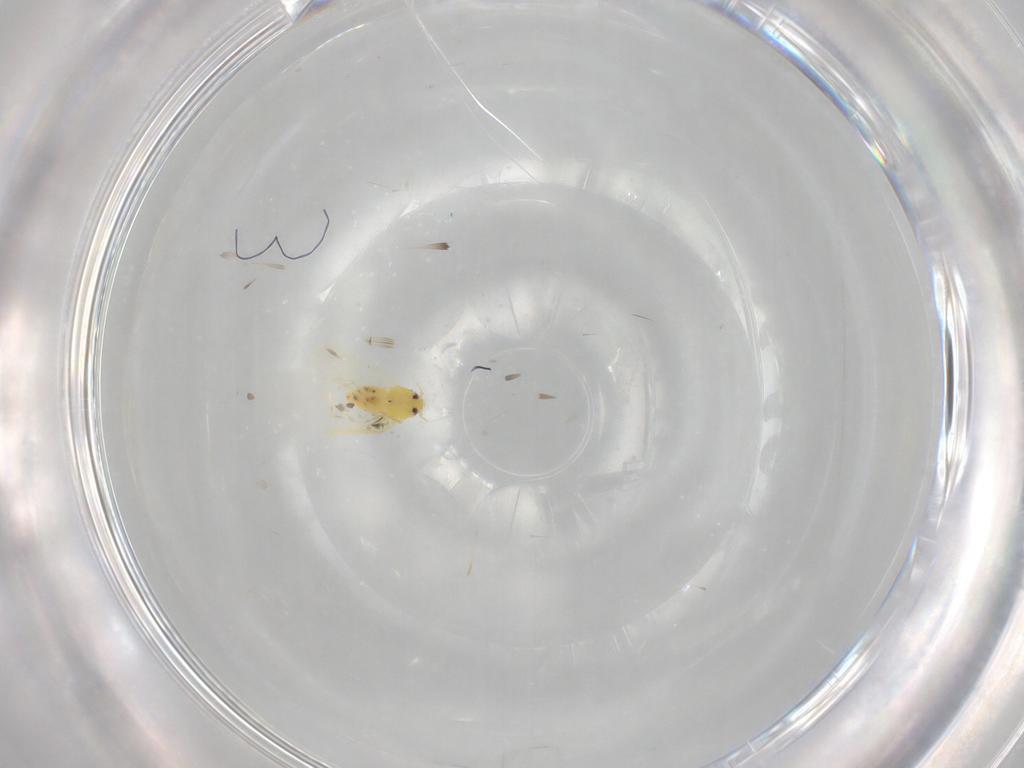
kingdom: Animalia
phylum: Arthropoda
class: Insecta
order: Hemiptera
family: Aleyrodidae
